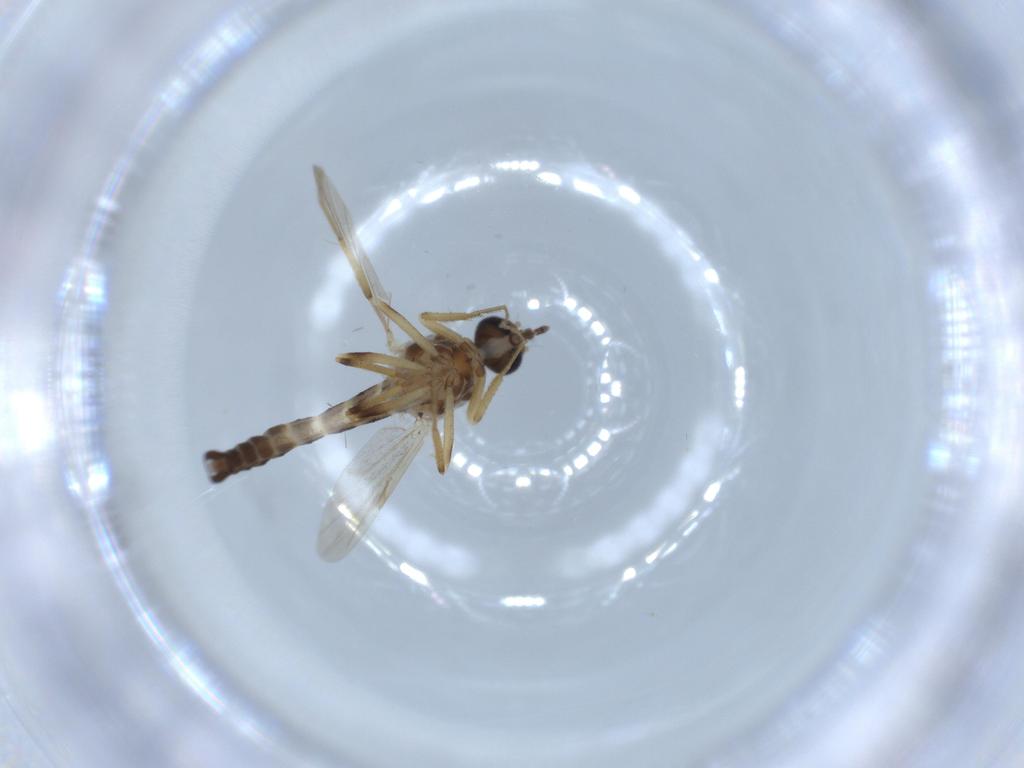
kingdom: Animalia
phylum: Arthropoda
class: Insecta
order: Diptera
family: Ceratopogonidae
